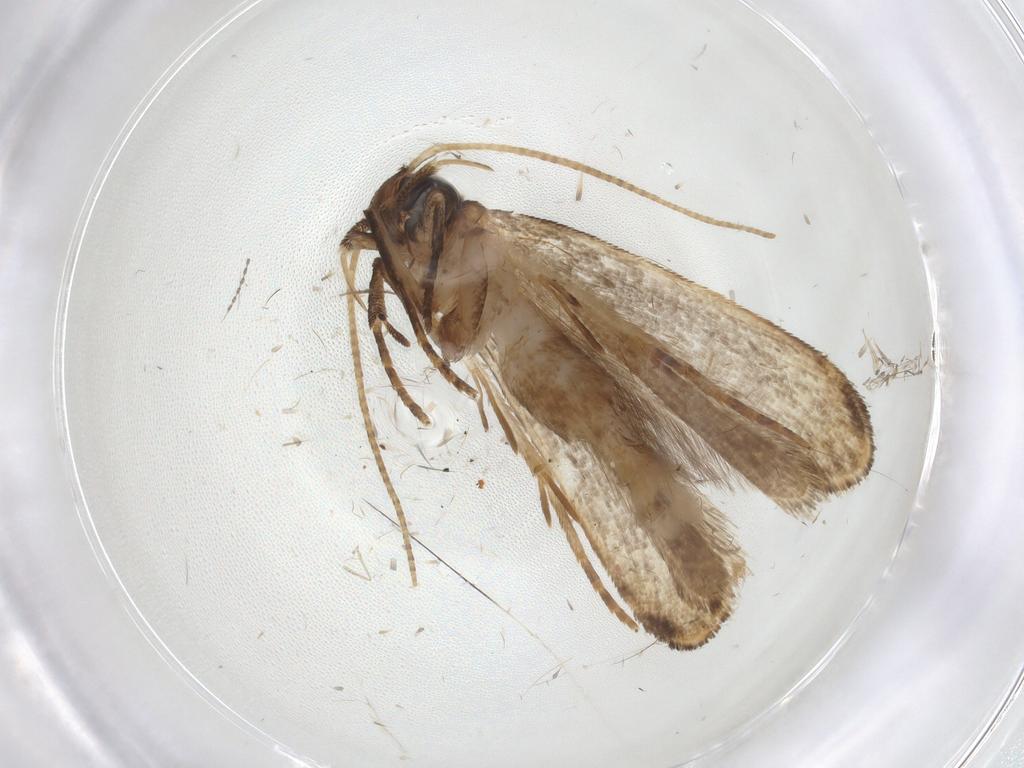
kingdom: Animalia
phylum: Arthropoda
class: Insecta
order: Lepidoptera
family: Gelechiidae
